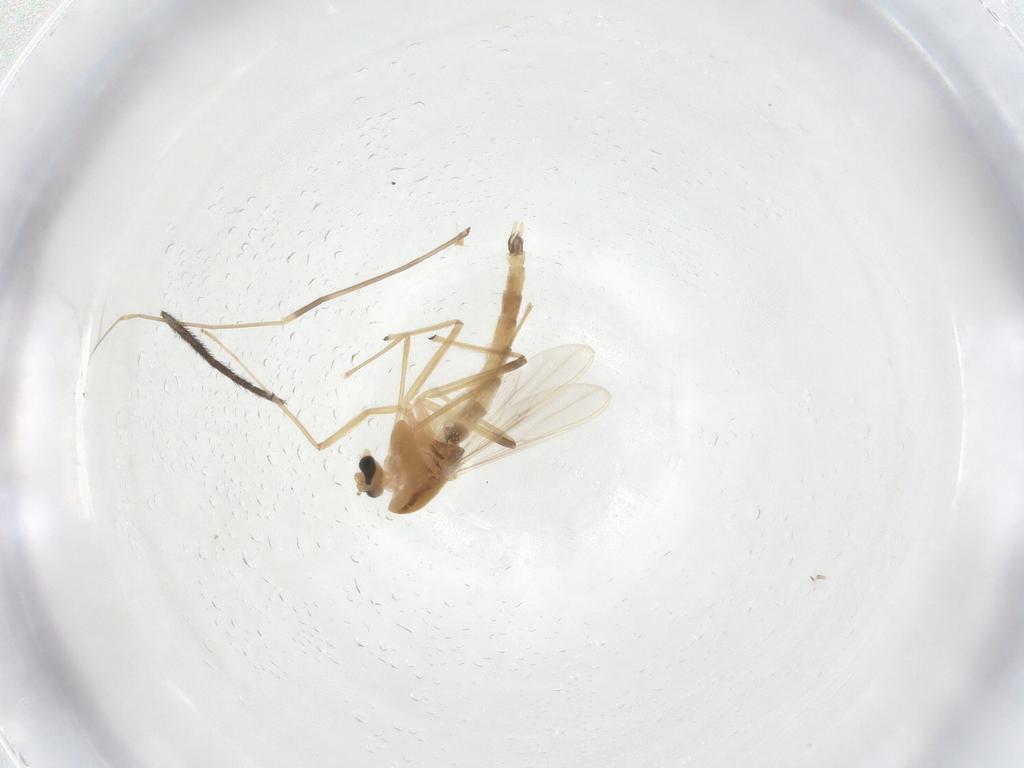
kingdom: Animalia
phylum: Arthropoda
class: Insecta
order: Diptera
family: Chironomidae
